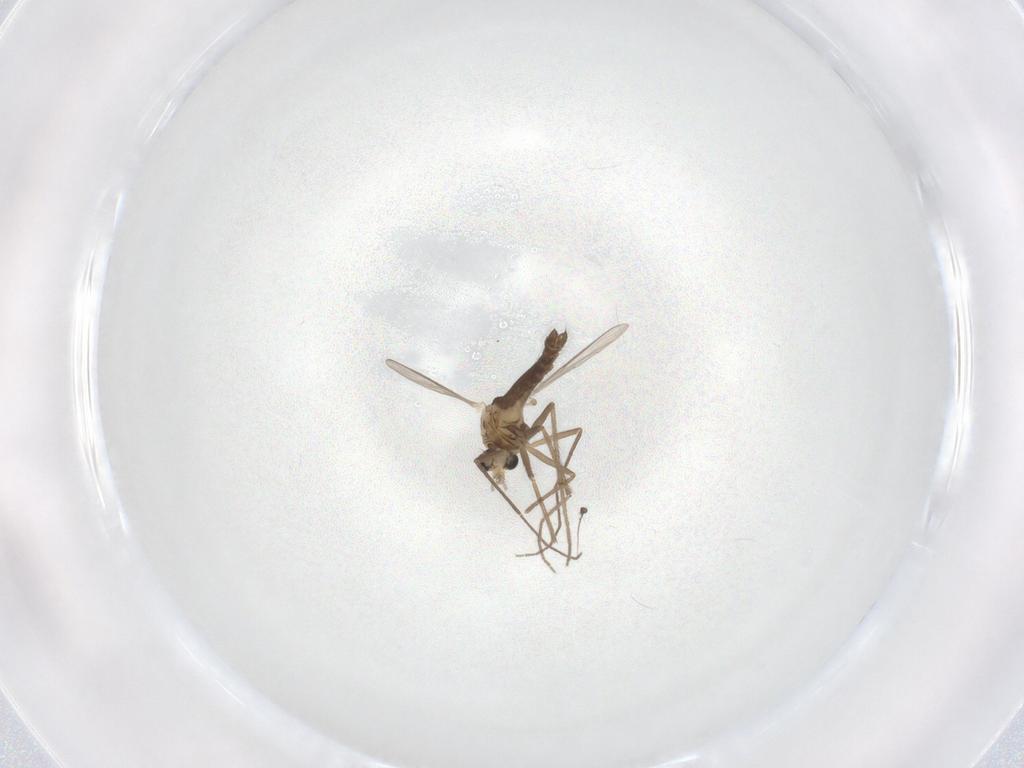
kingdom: Animalia
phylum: Arthropoda
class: Insecta
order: Diptera
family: Chironomidae
